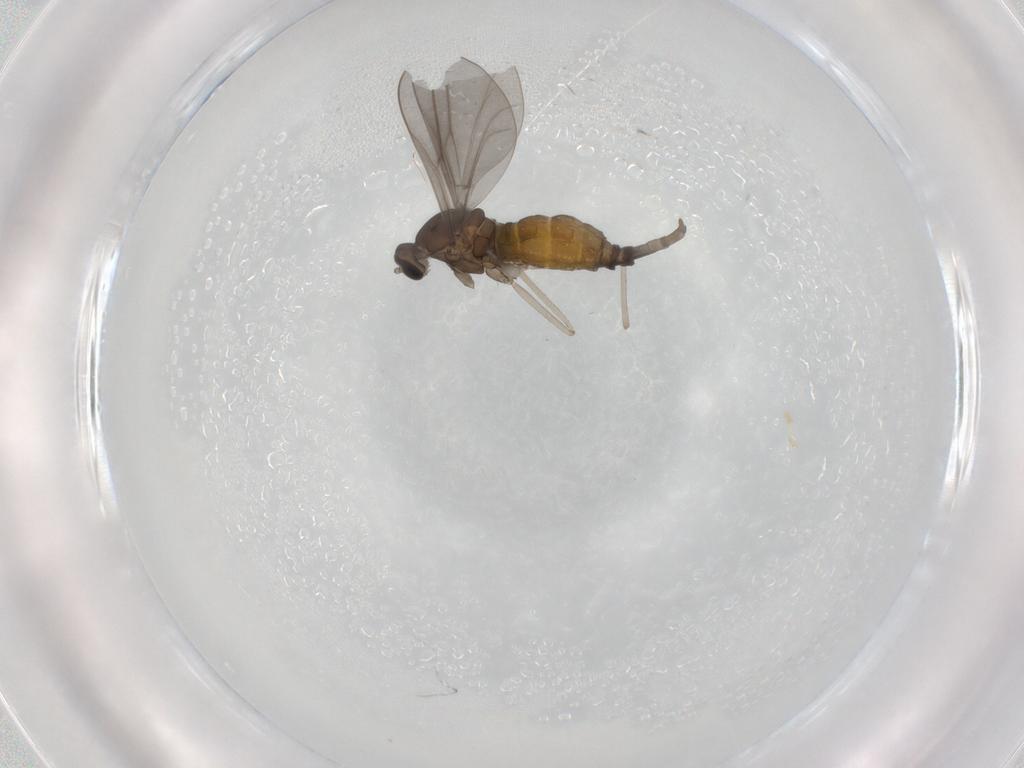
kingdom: Animalia
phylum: Arthropoda
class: Insecta
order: Diptera
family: Cecidomyiidae
